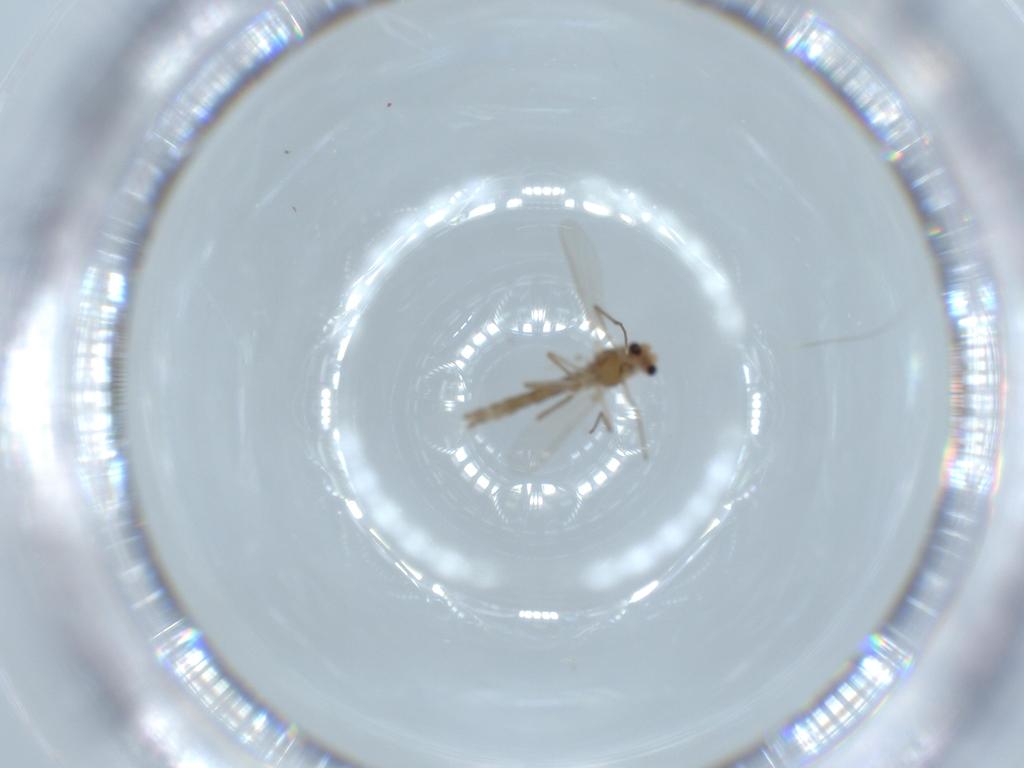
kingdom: Animalia
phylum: Arthropoda
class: Insecta
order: Diptera
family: Chironomidae
